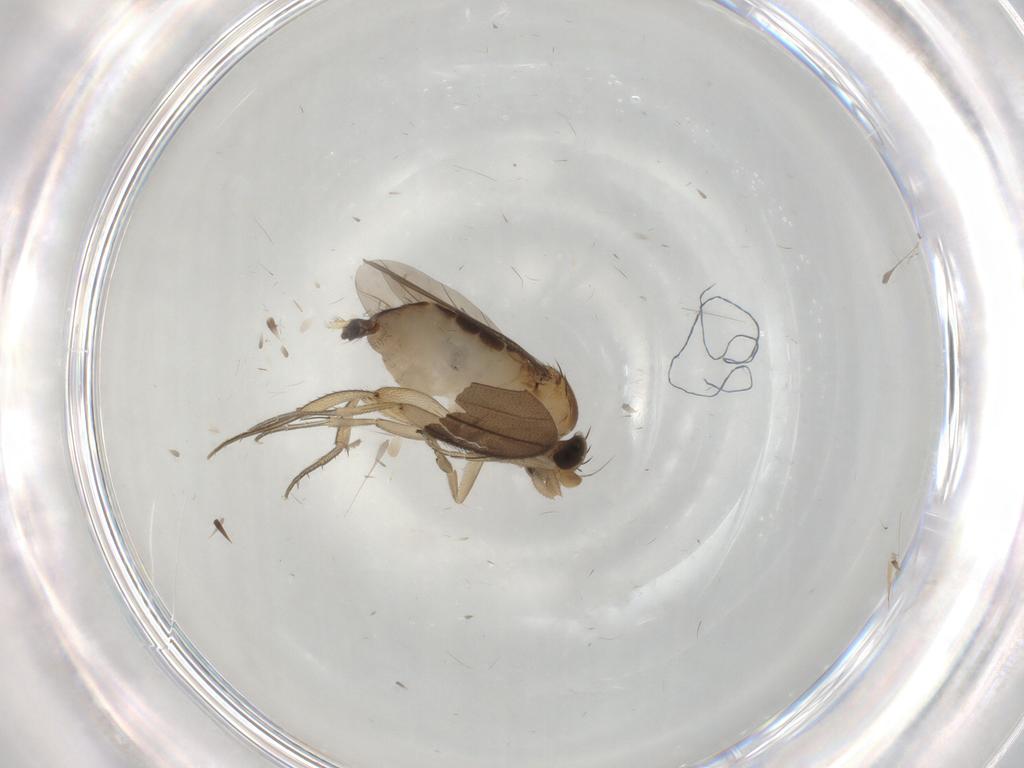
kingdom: Animalia
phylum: Arthropoda
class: Insecta
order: Diptera
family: Phoridae
